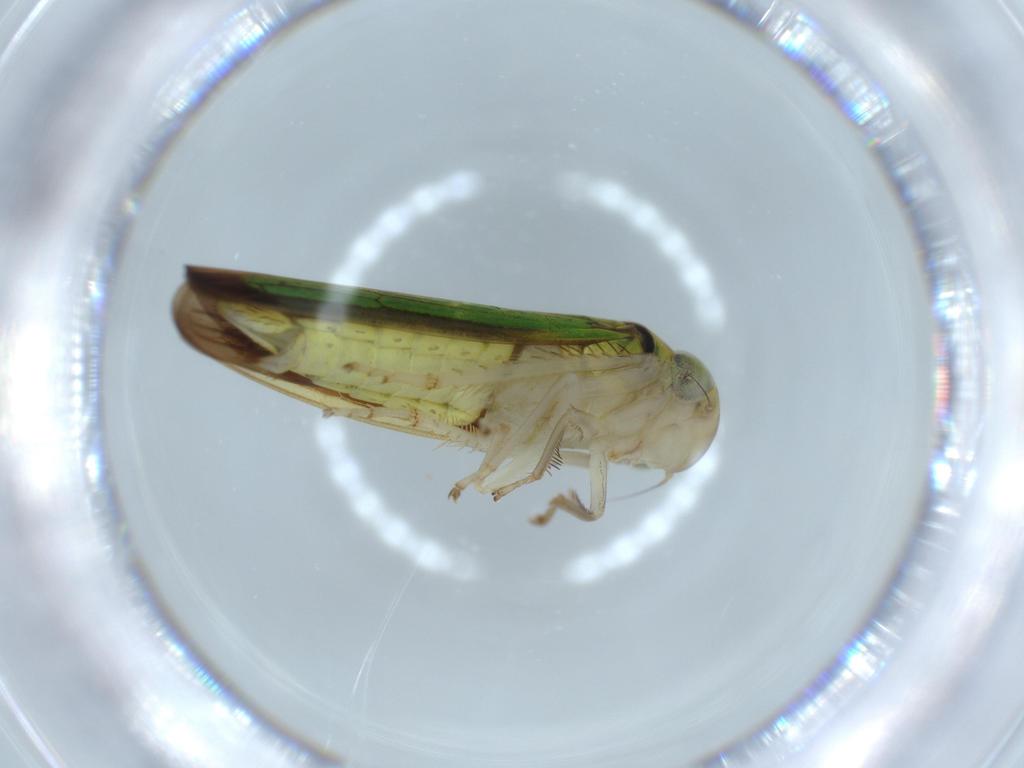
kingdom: Animalia
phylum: Arthropoda
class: Insecta
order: Hemiptera
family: Cicadellidae
